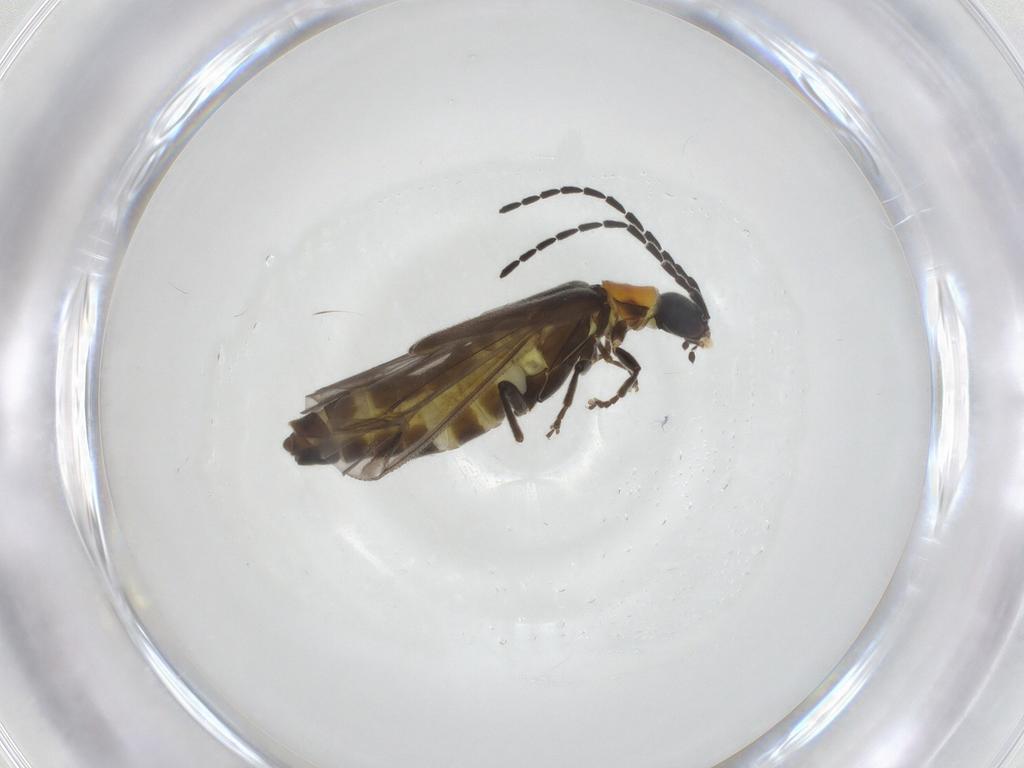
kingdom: Animalia
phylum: Arthropoda
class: Insecta
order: Coleoptera
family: Cantharidae
